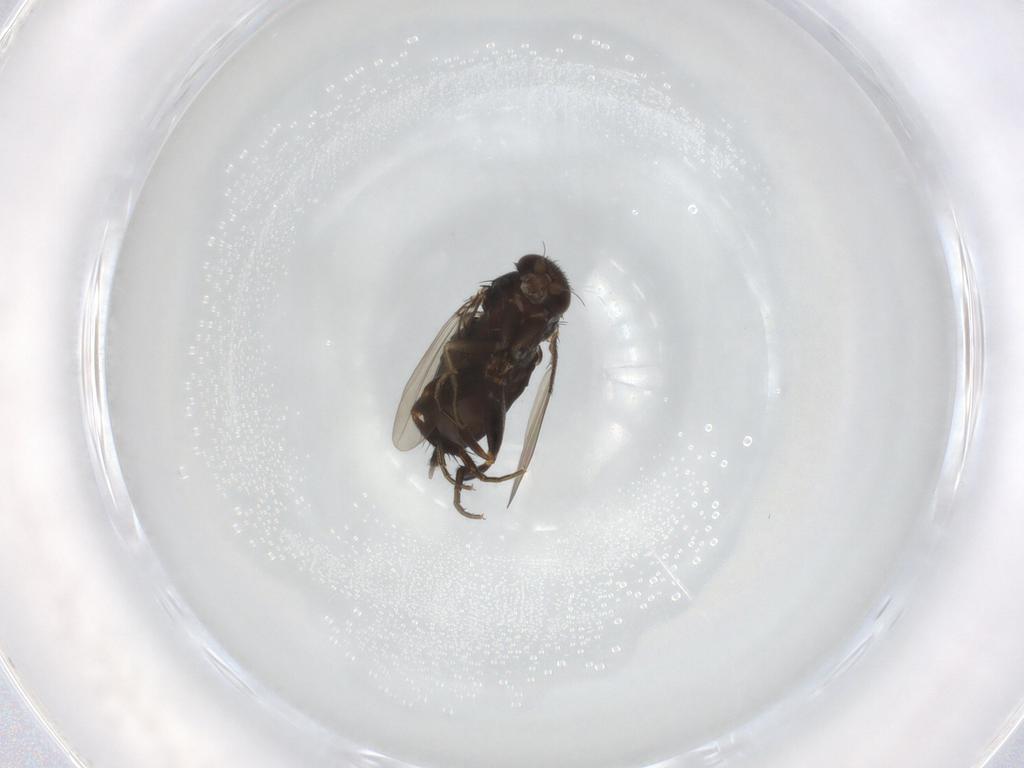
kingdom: Animalia
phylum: Arthropoda
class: Insecta
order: Diptera
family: Phoridae
